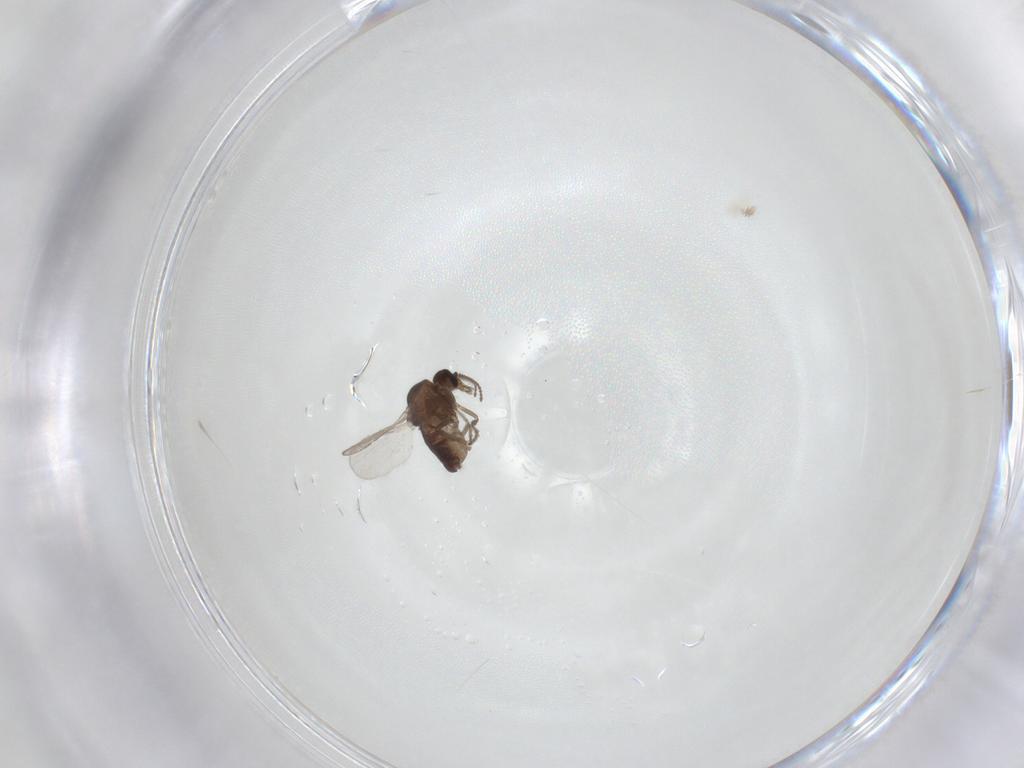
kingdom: Animalia
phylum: Arthropoda
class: Insecta
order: Diptera
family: Ceratopogonidae
